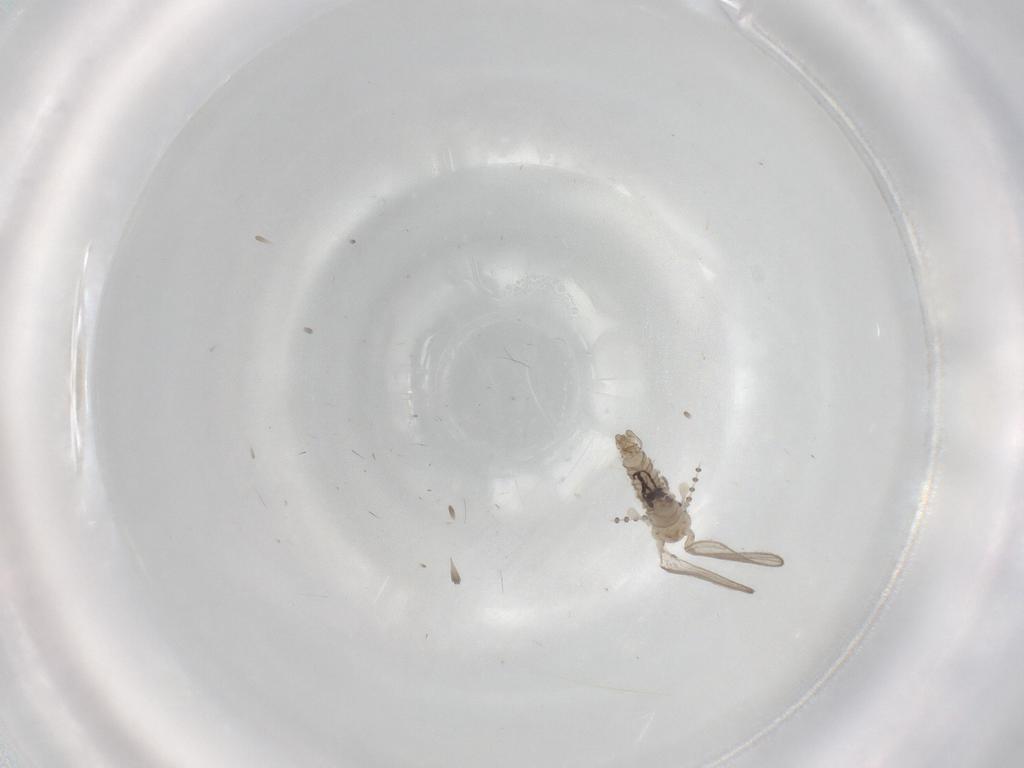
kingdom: Animalia
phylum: Arthropoda
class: Insecta
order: Diptera
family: Psychodidae
